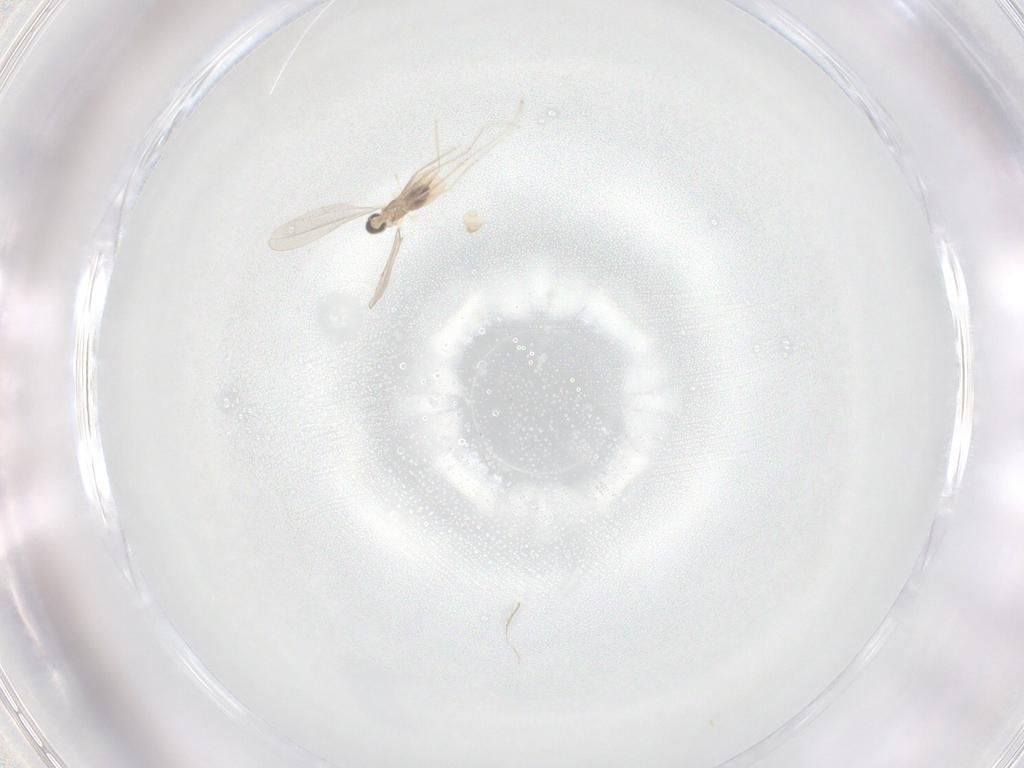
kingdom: Animalia
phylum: Arthropoda
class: Insecta
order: Diptera
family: Cecidomyiidae
